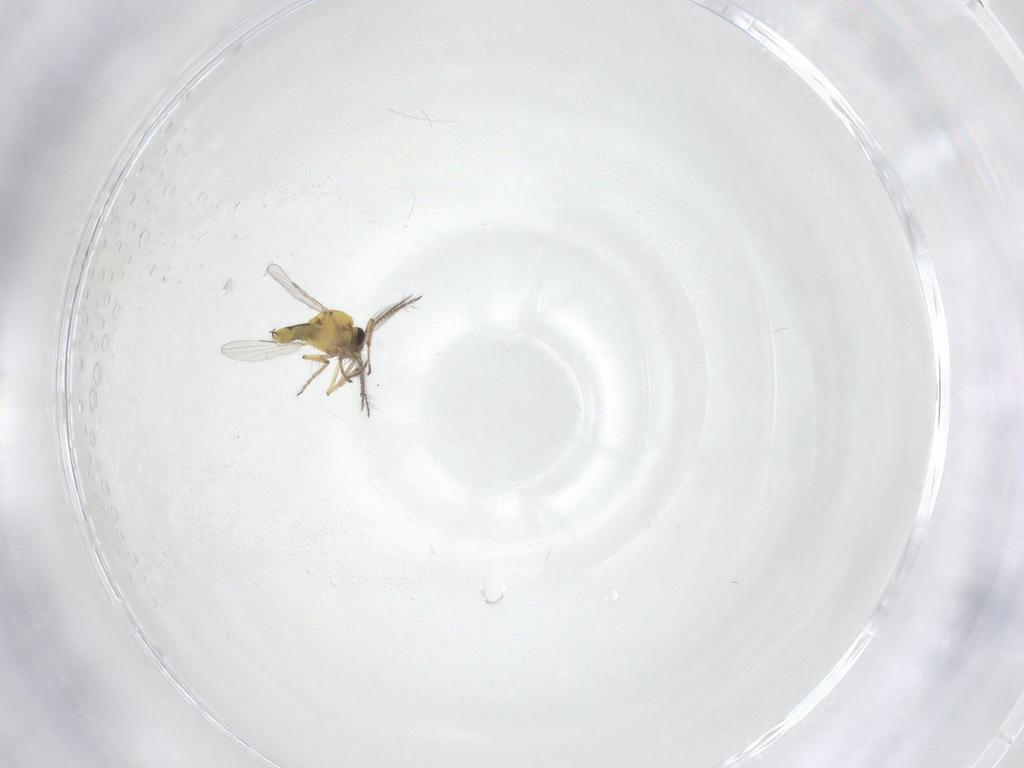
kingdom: Animalia
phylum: Arthropoda
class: Insecta
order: Diptera
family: Ceratopogonidae
